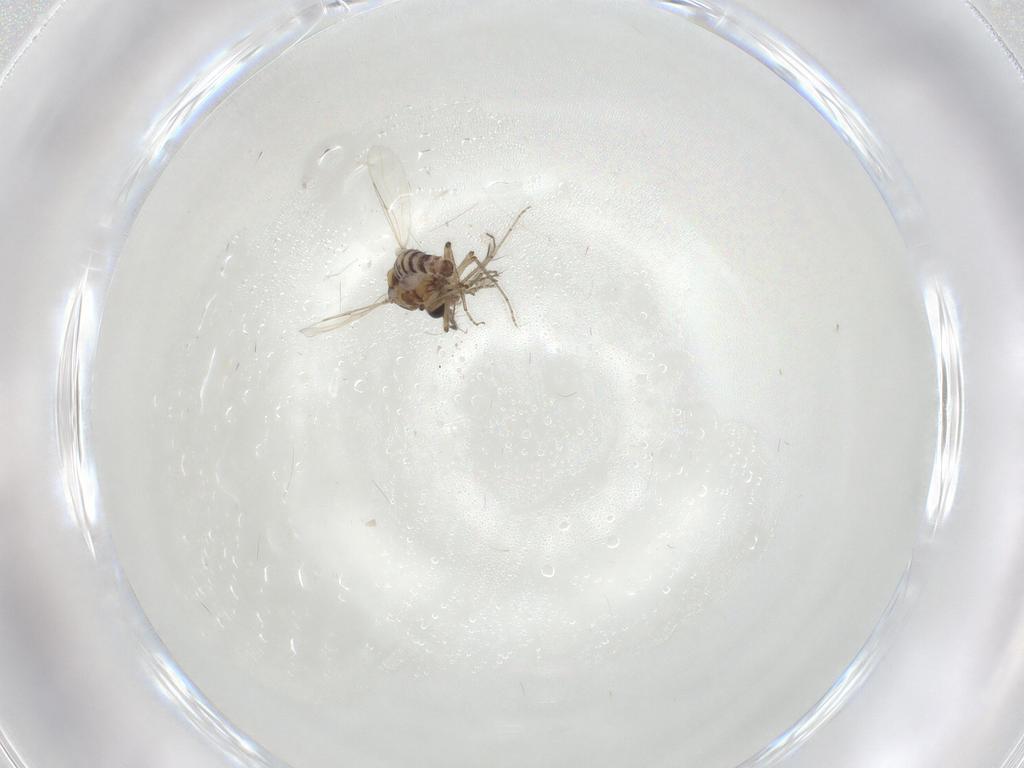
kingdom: Animalia
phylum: Arthropoda
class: Insecta
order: Diptera
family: Ceratopogonidae
